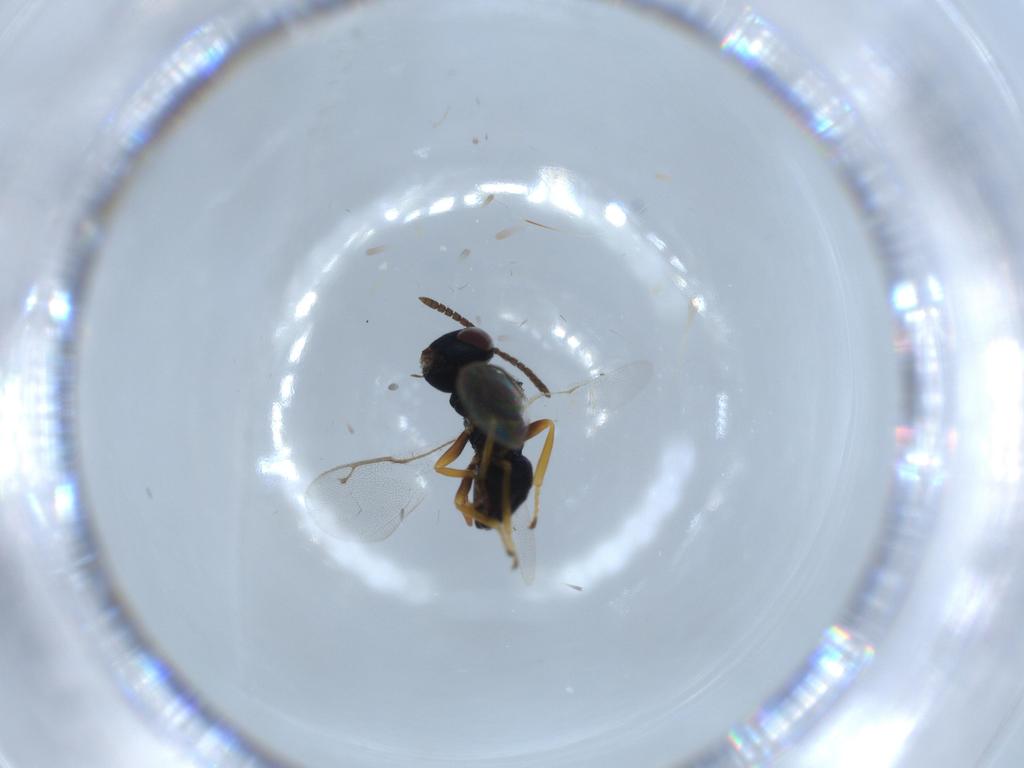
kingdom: Animalia
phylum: Arthropoda
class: Insecta
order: Hymenoptera
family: Pteromalidae
